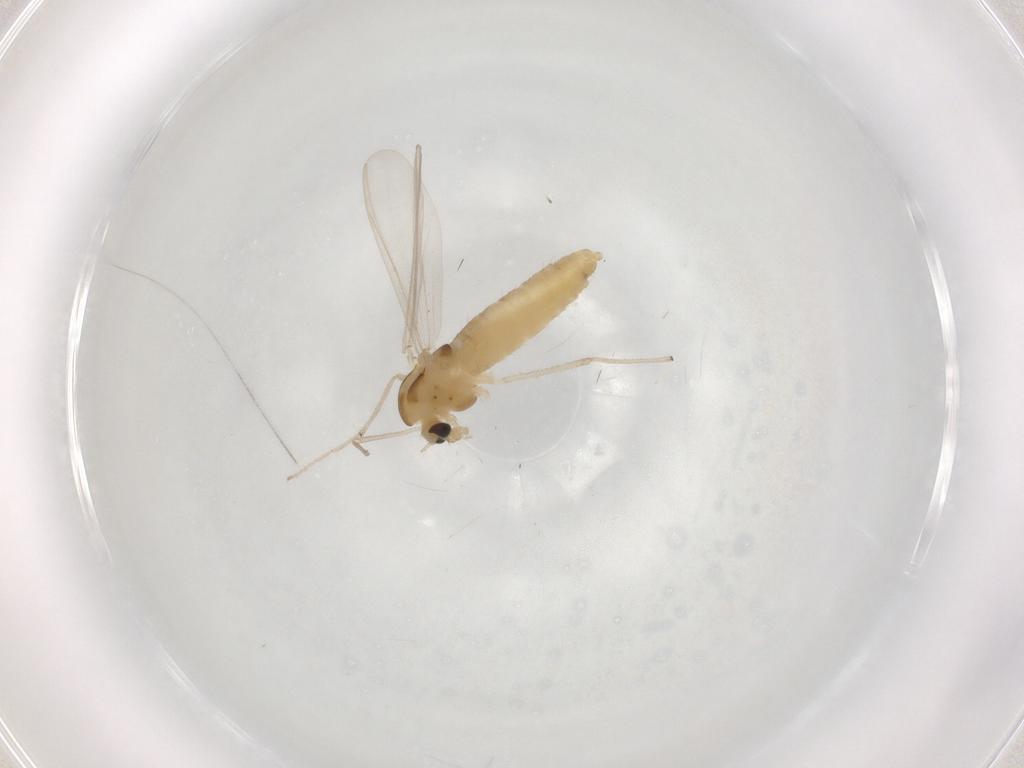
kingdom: Animalia
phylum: Arthropoda
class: Insecta
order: Diptera
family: Chironomidae
